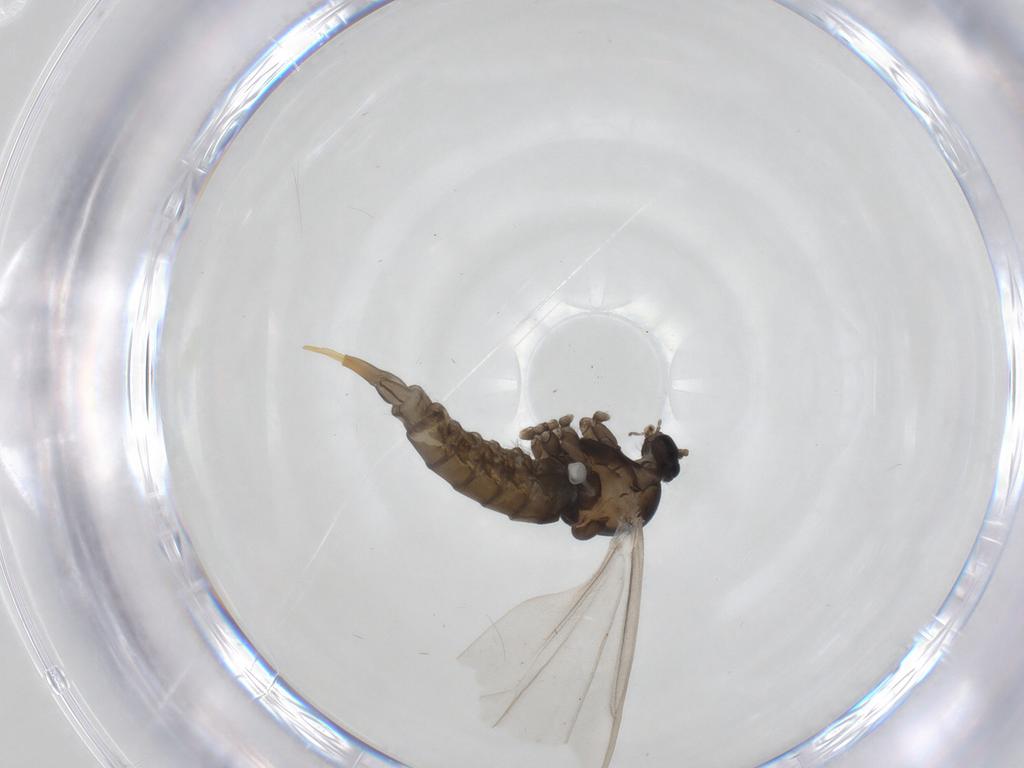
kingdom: Animalia
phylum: Arthropoda
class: Insecta
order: Diptera
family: Cecidomyiidae
